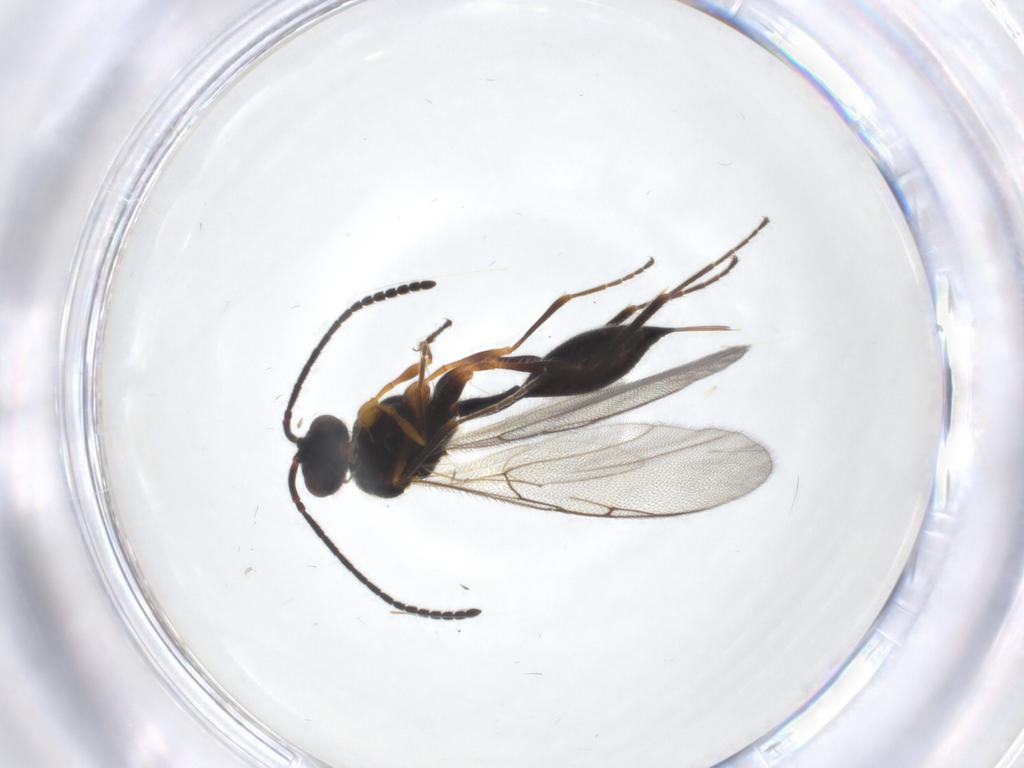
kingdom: Animalia
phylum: Arthropoda
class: Insecta
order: Hymenoptera
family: Diapriidae
